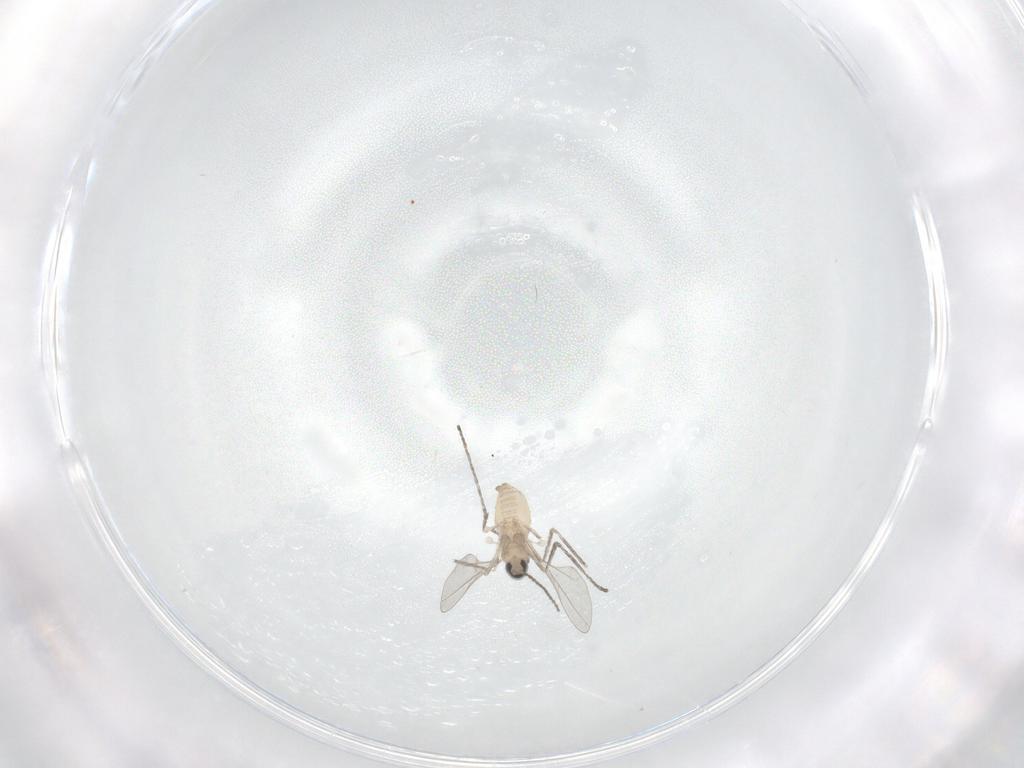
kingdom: Animalia
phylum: Arthropoda
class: Insecta
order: Diptera
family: Cecidomyiidae
